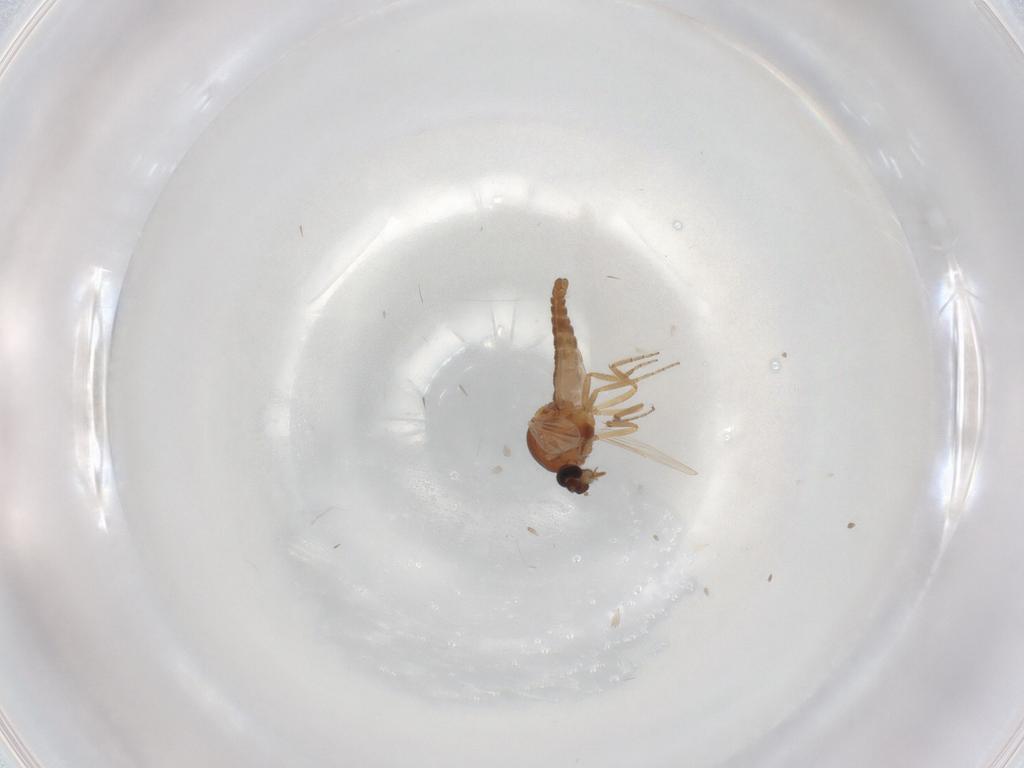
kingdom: Animalia
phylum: Arthropoda
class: Insecta
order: Diptera
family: Ceratopogonidae
